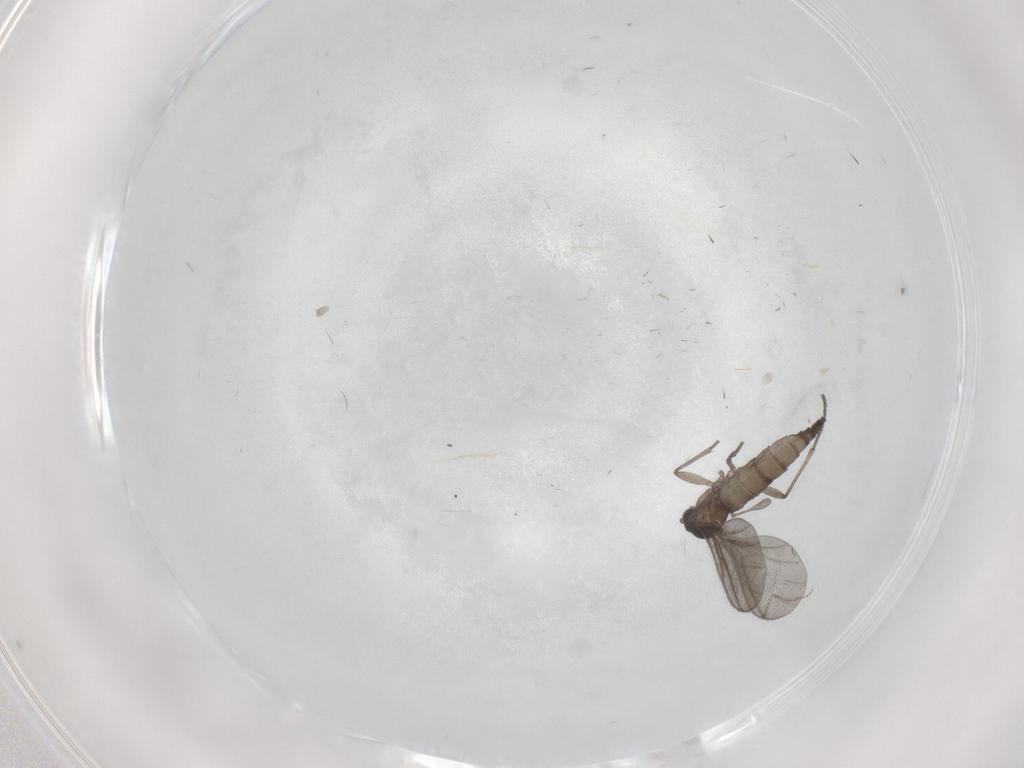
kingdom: Animalia
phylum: Arthropoda
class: Insecta
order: Diptera
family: Sciaridae
